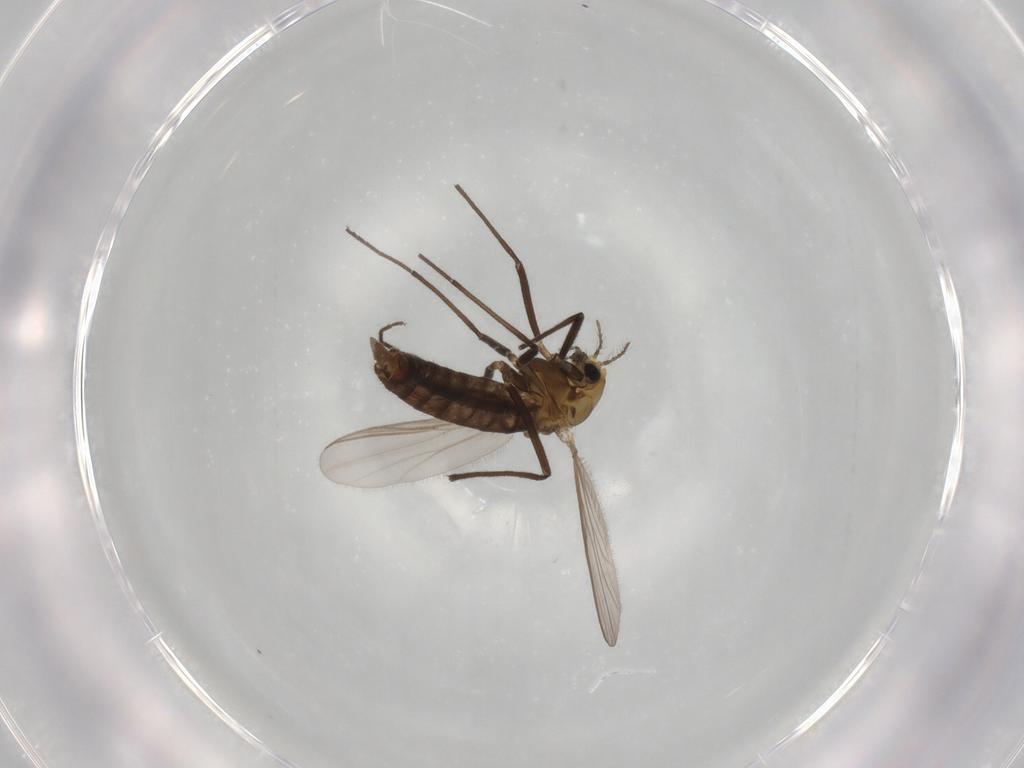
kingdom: Animalia
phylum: Arthropoda
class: Insecta
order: Diptera
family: Chironomidae
